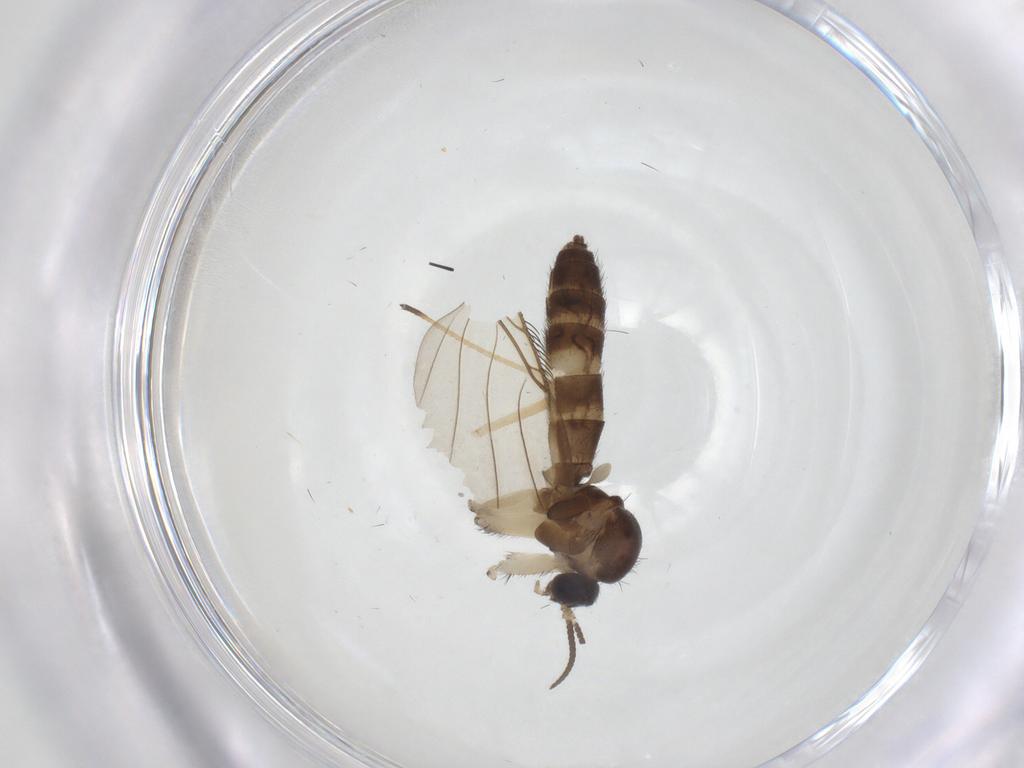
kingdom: Animalia
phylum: Arthropoda
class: Insecta
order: Diptera
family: Keroplatidae
